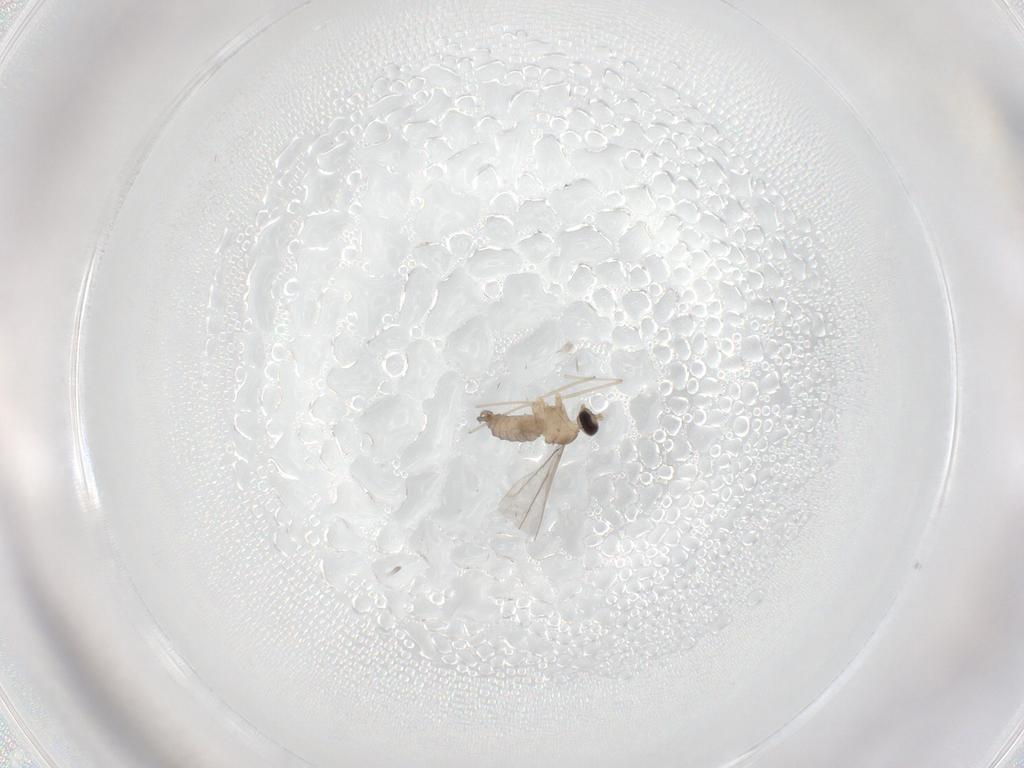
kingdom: Animalia
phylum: Arthropoda
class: Insecta
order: Diptera
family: Cecidomyiidae
